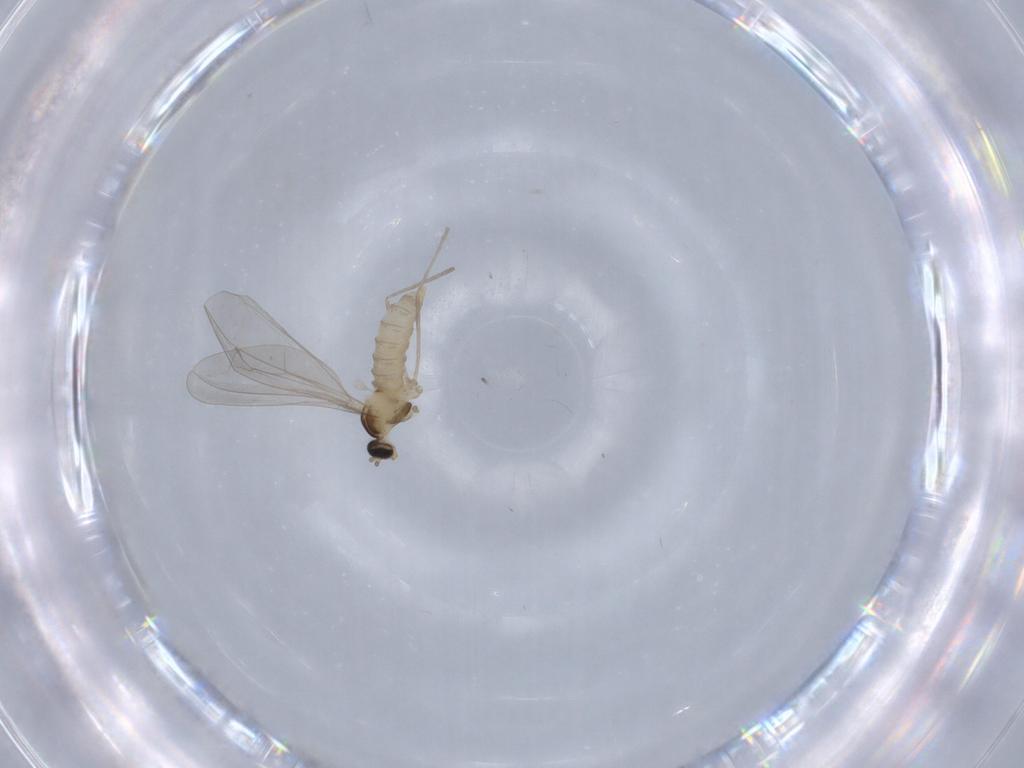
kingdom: Animalia
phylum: Arthropoda
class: Insecta
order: Diptera
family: Cecidomyiidae
